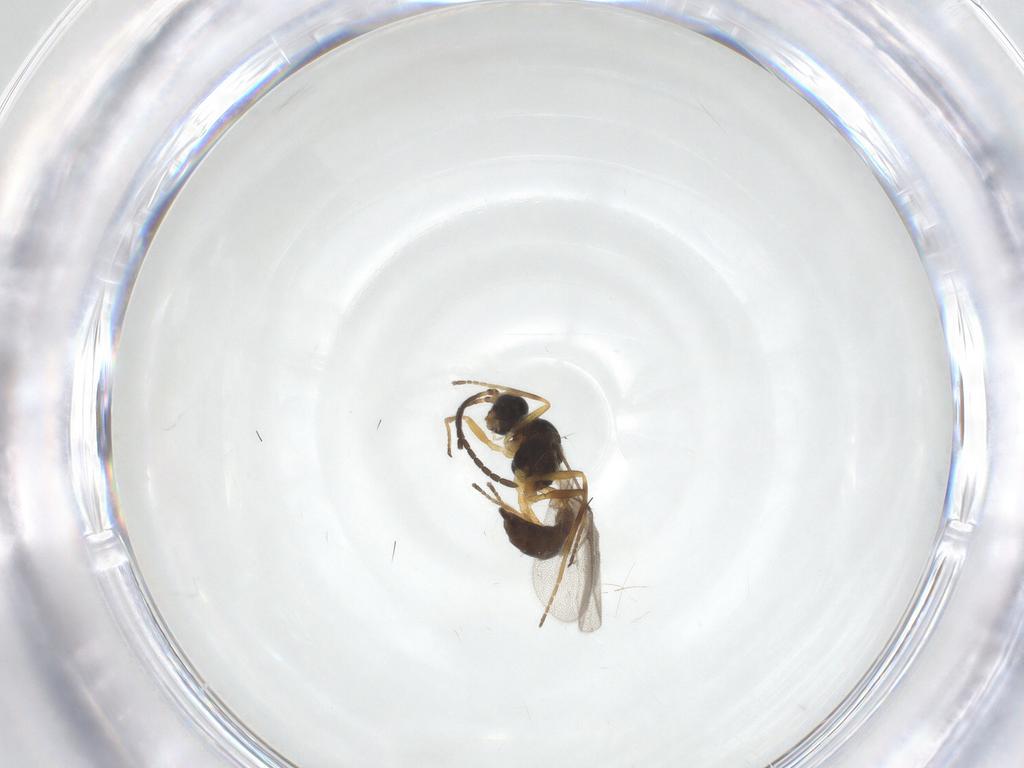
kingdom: Animalia
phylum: Arthropoda
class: Insecta
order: Hymenoptera
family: Braconidae
